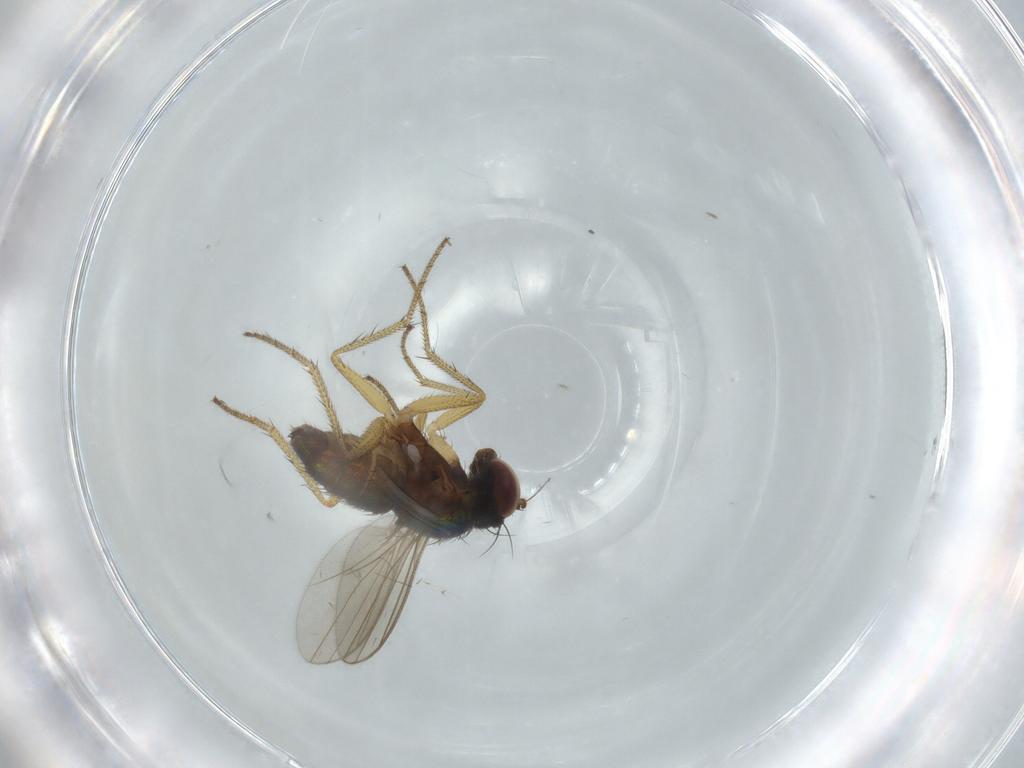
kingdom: Animalia
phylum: Arthropoda
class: Insecta
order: Diptera
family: Dolichopodidae
